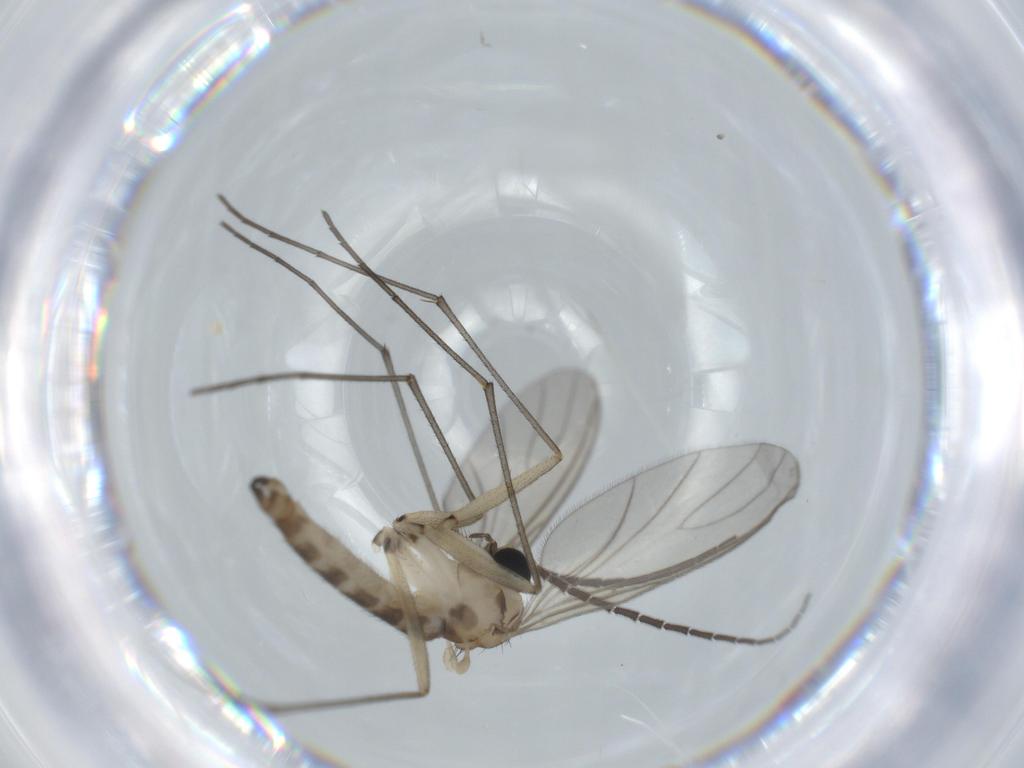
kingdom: Animalia
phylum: Arthropoda
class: Insecta
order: Diptera
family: Sciaridae
